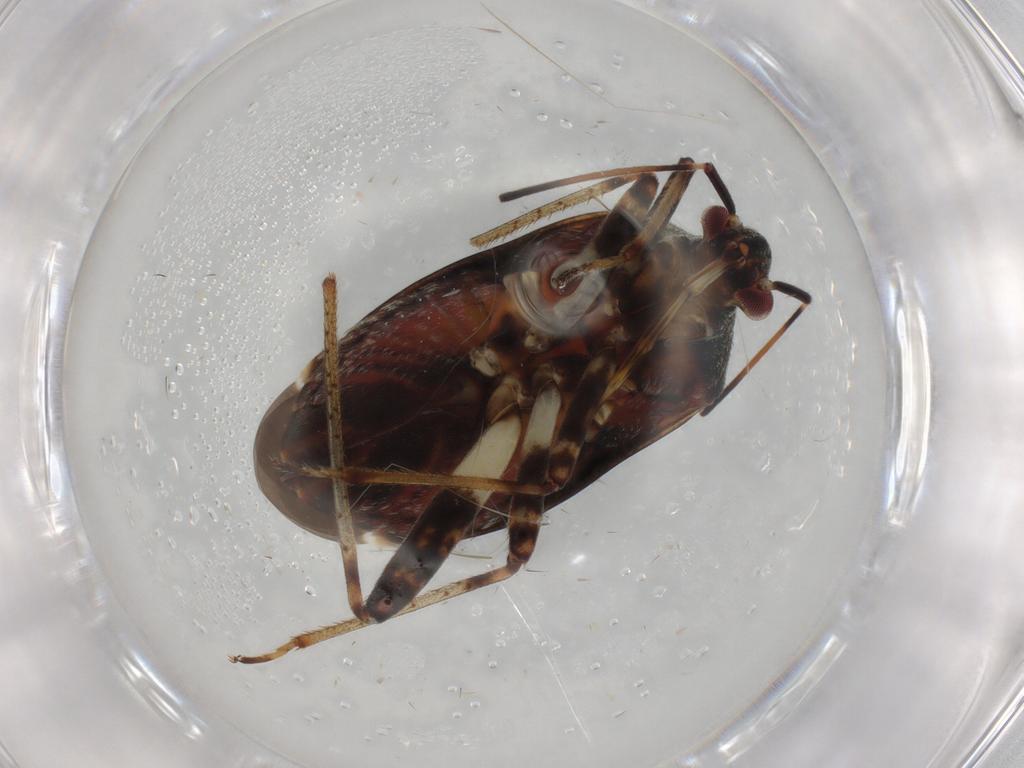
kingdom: Animalia
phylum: Arthropoda
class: Insecta
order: Hemiptera
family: Miridae
